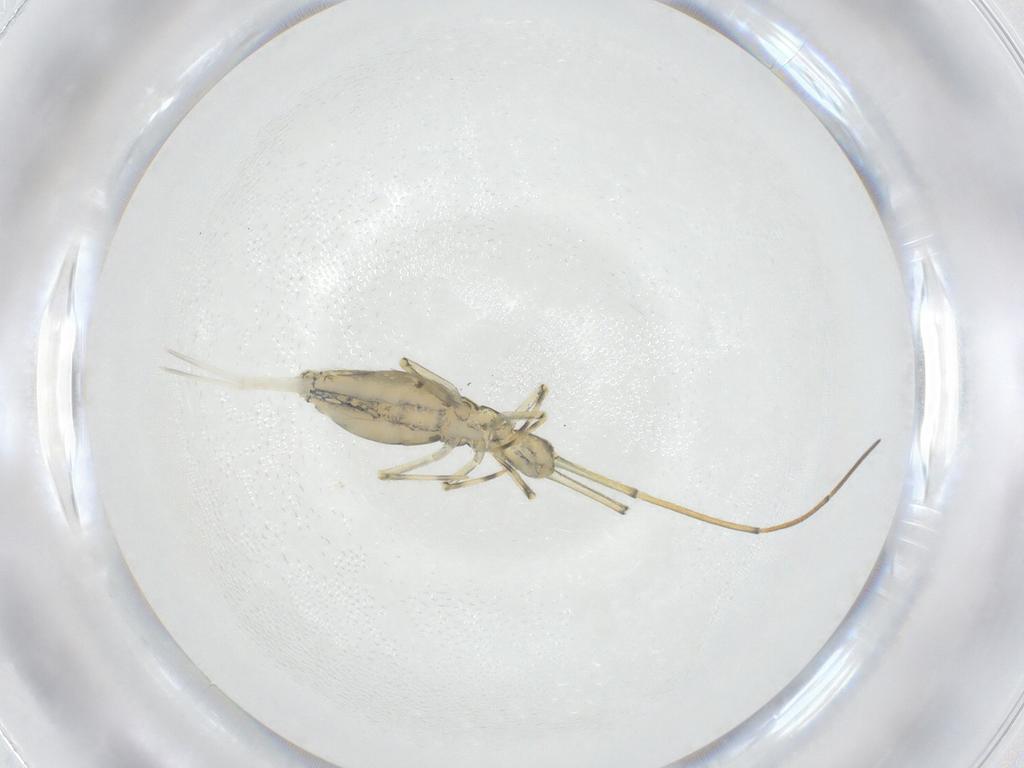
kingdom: Animalia
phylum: Arthropoda
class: Collembola
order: Entomobryomorpha
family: Paronellidae
